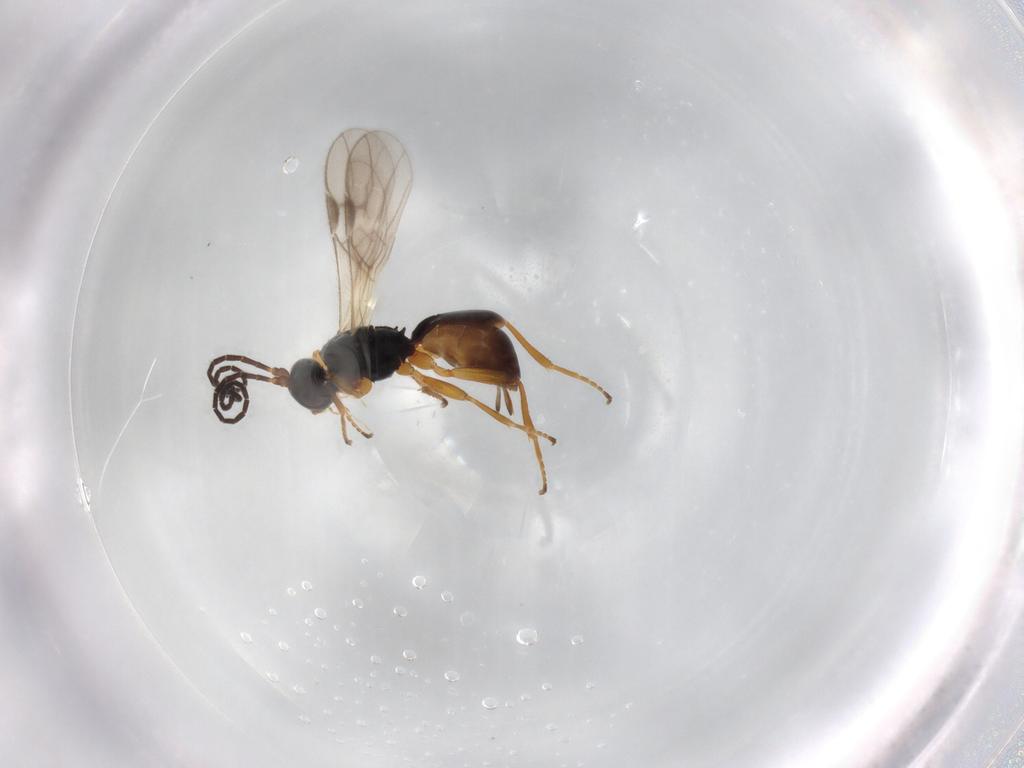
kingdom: Animalia
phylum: Arthropoda
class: Insecta
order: Hymenoptera
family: Braconidae
